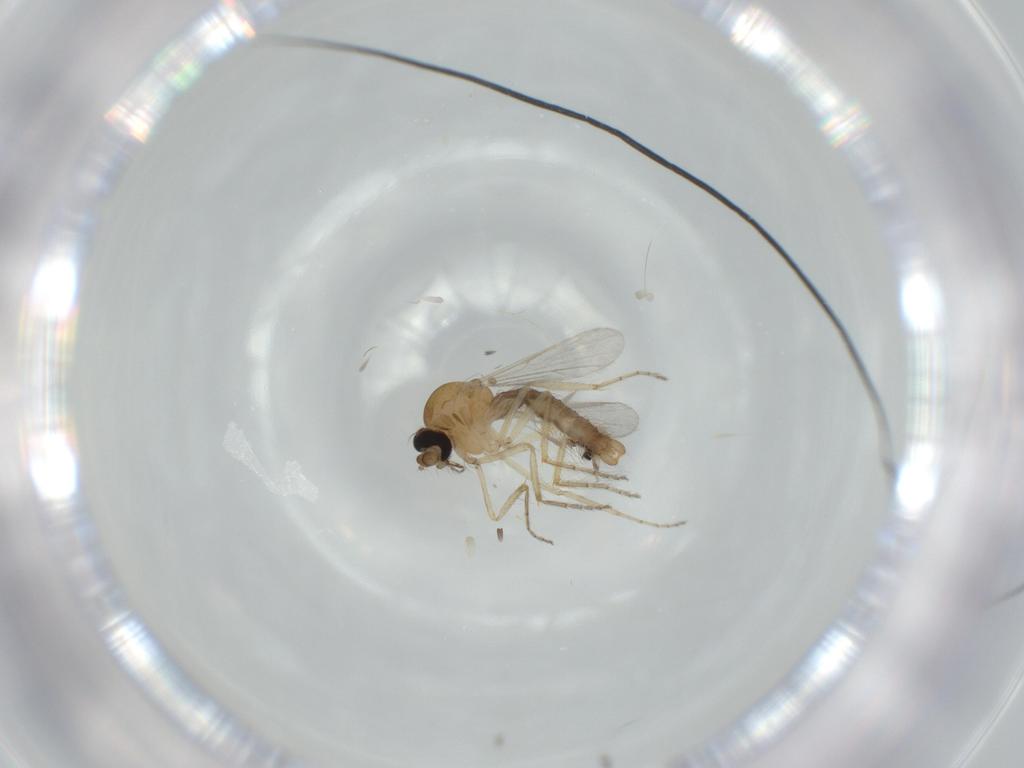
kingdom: Animalia
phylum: Arthropoda
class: Insecta
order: Diptera
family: Ceratopogonidae
